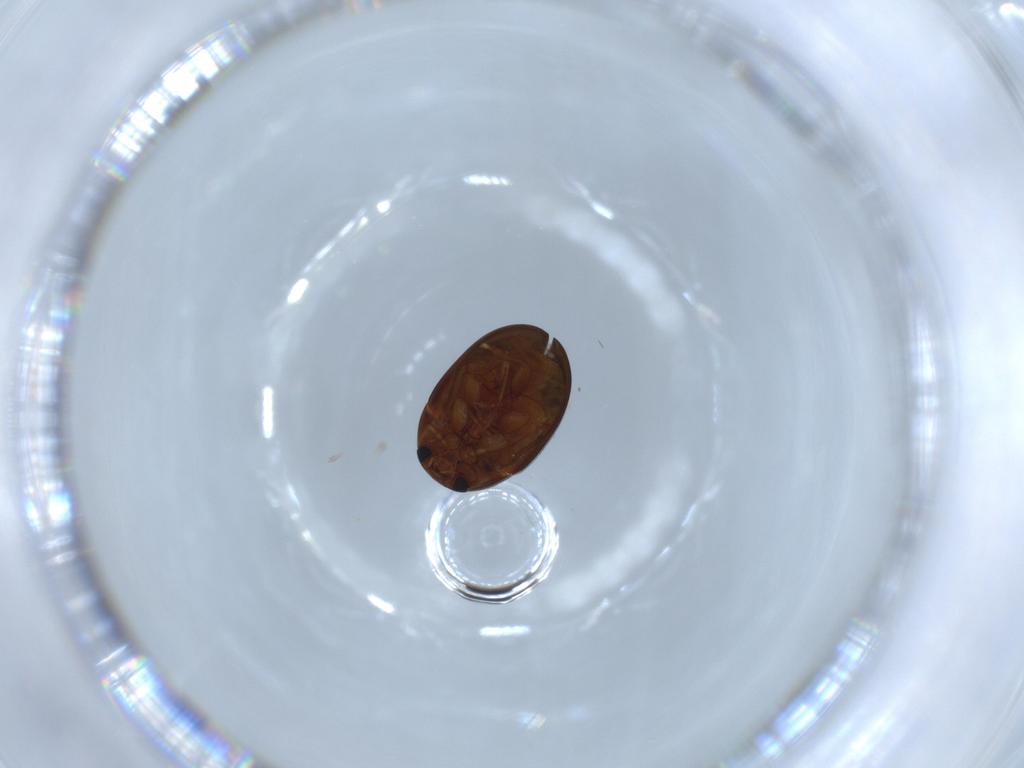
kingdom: Animalia
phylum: Arthropoda
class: Insecta
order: Coleoptera
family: Phalacridae
